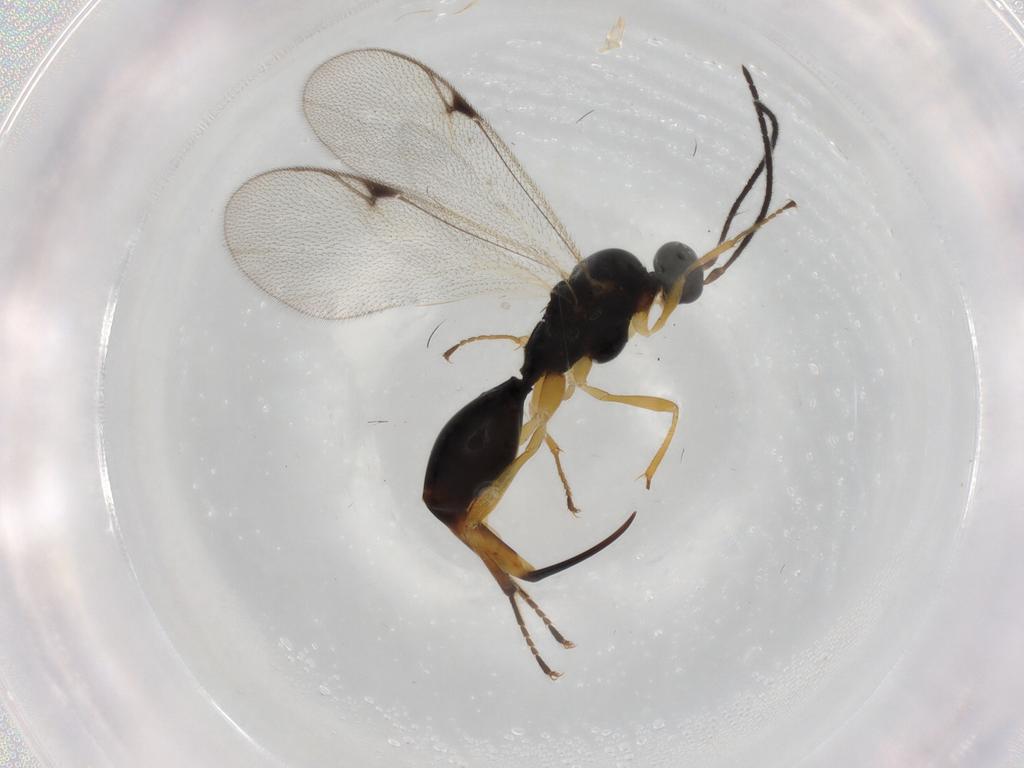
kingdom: Animalia
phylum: Arthropoda
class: Insecta
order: Hymenoptera
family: Proctotrupidae
